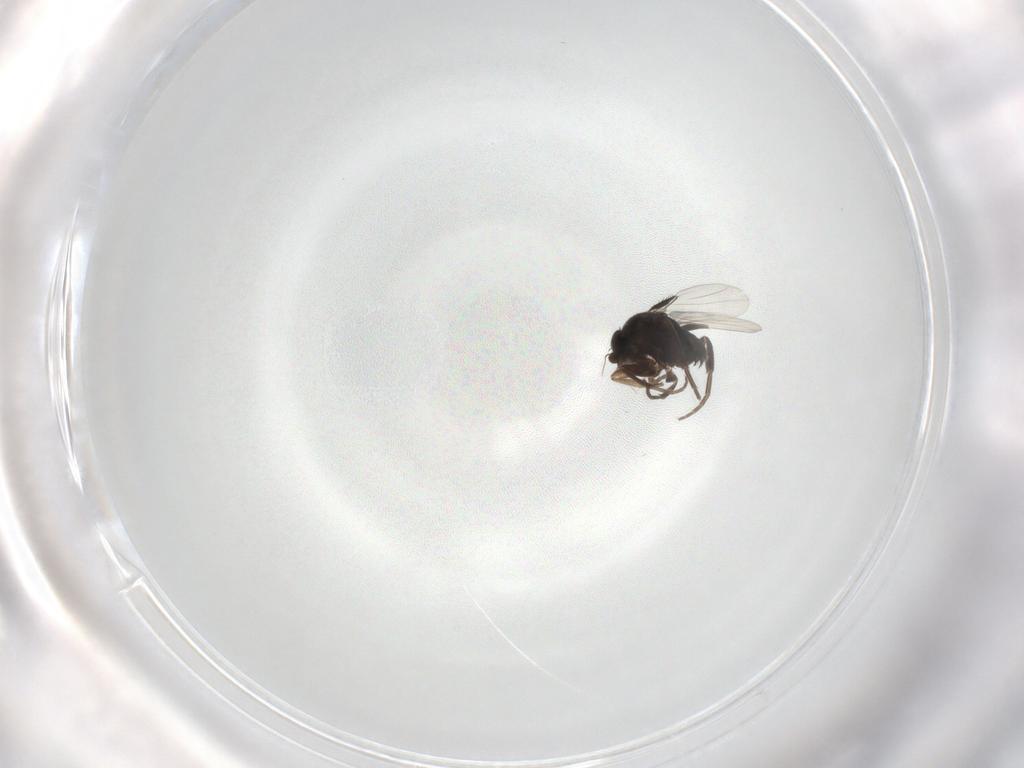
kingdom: Animalia
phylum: Arthropoda
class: Insecta
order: Diptera
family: Phoridae
